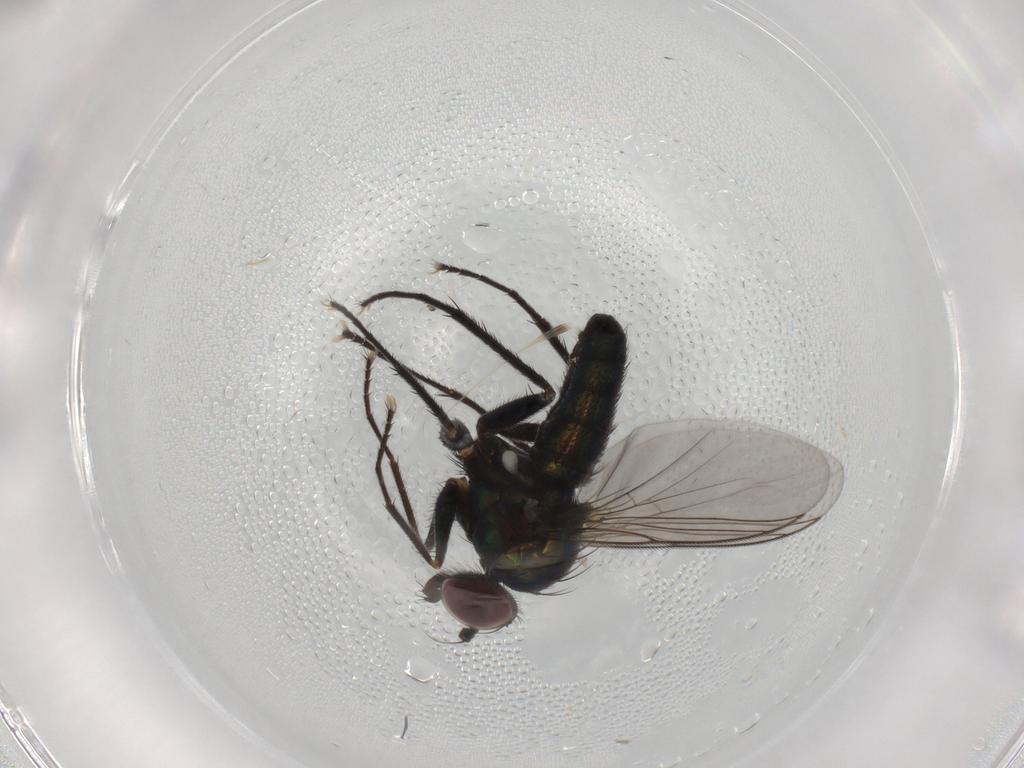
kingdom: Animalia
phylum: Arthropoda
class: Insecta
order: Diptera
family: Dolichopodidae
